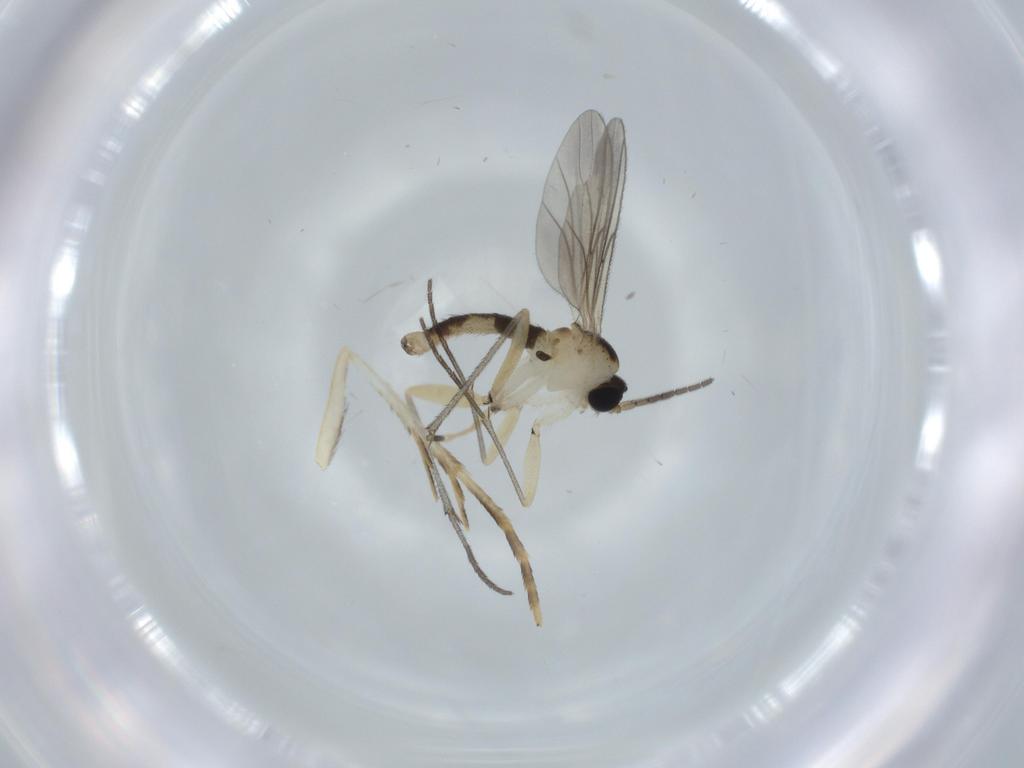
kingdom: Animalia
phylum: Arthropoda
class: Insecta
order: Diptera
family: Sciaridae
